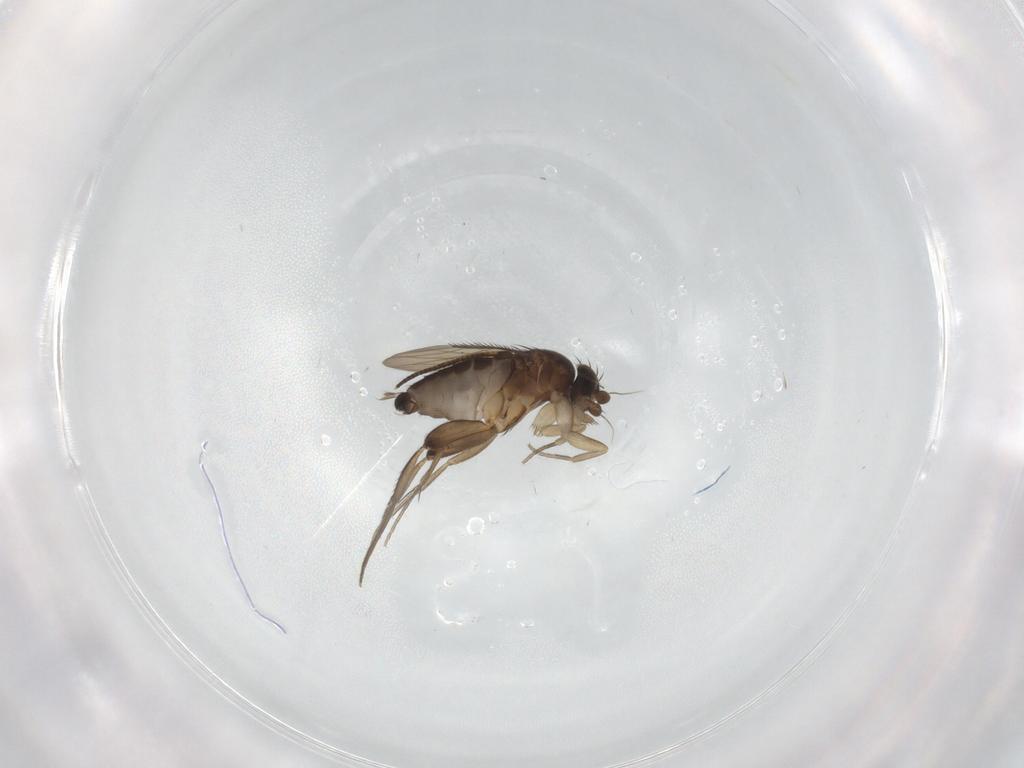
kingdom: Animalia
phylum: Arthropoda
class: Insecta
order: Diptera
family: Phoridae
